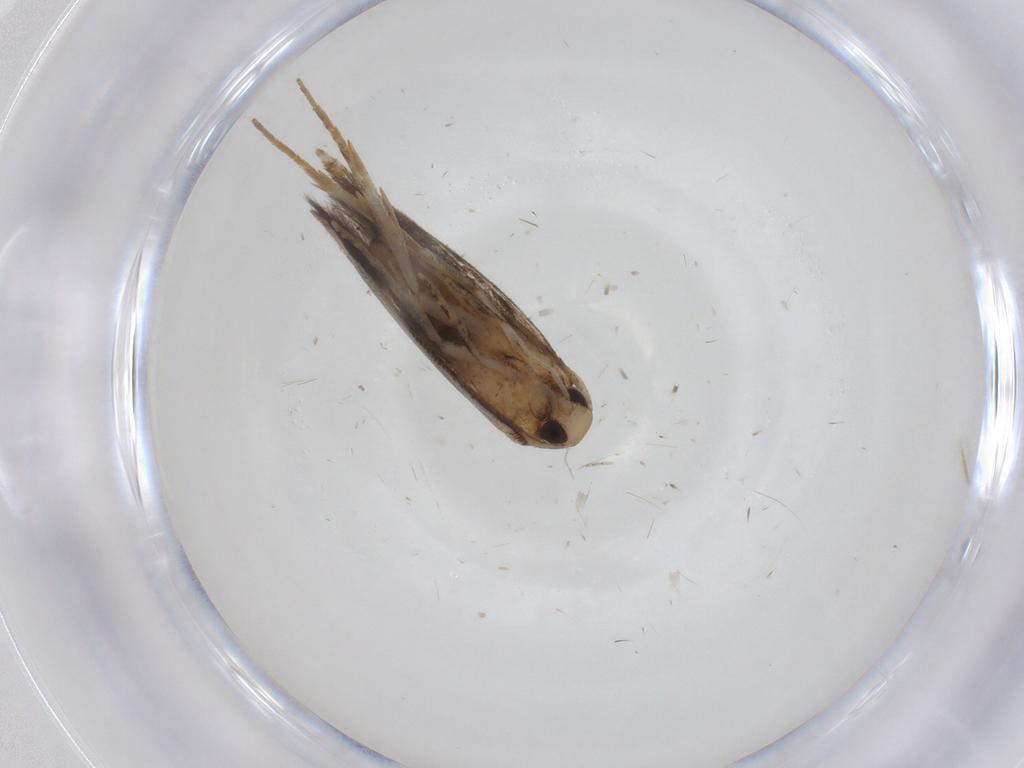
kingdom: Animalia
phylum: Arthropoda
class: Insecta
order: Lepidoptera
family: Cosmopterigidae
